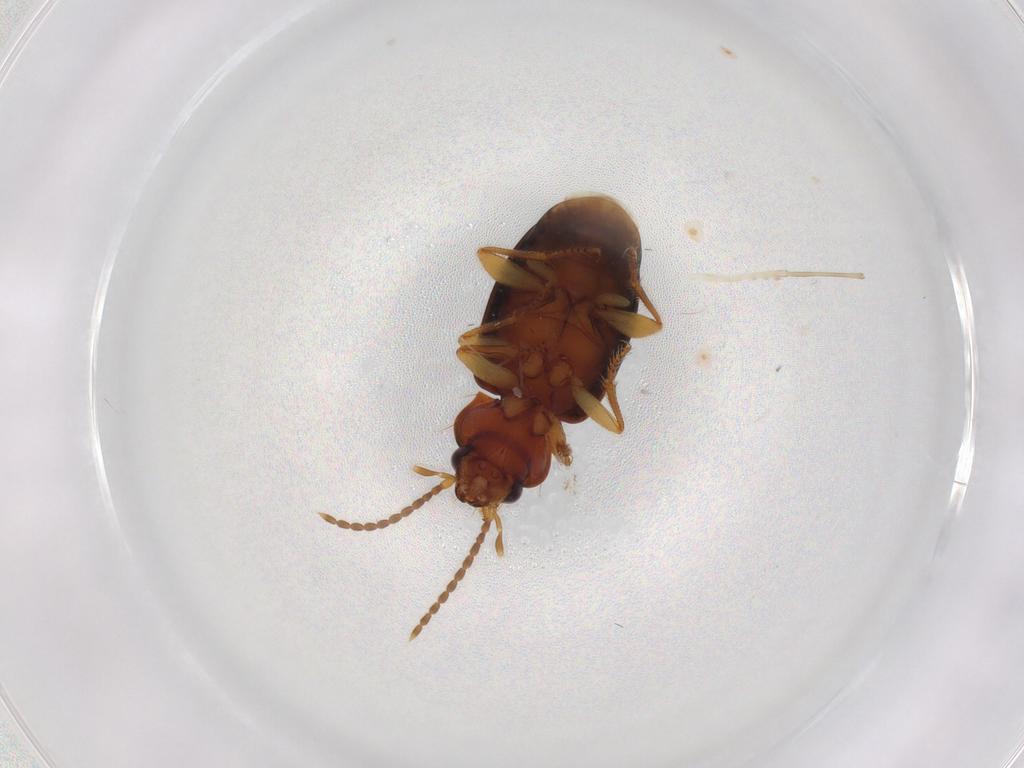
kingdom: Animalia
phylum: Arthropoda
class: Insecta
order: Coleoptera
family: Carabidae
